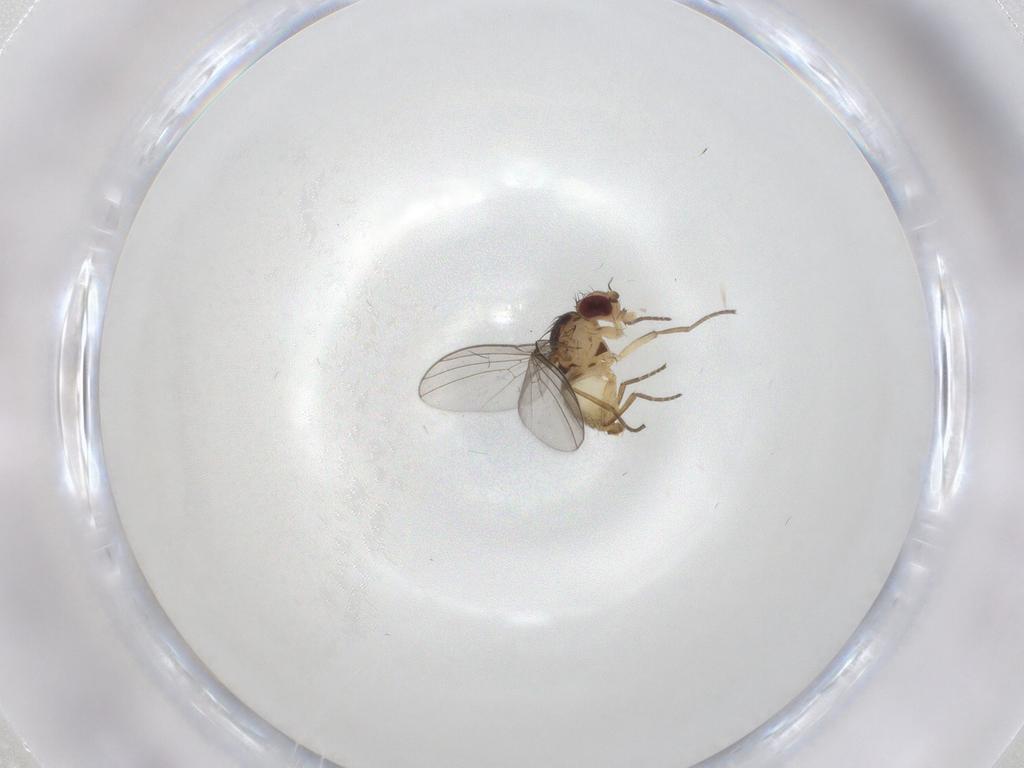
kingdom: Animalia
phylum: Arthropoda
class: Insecta
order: Diptera
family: Agromyzidae
